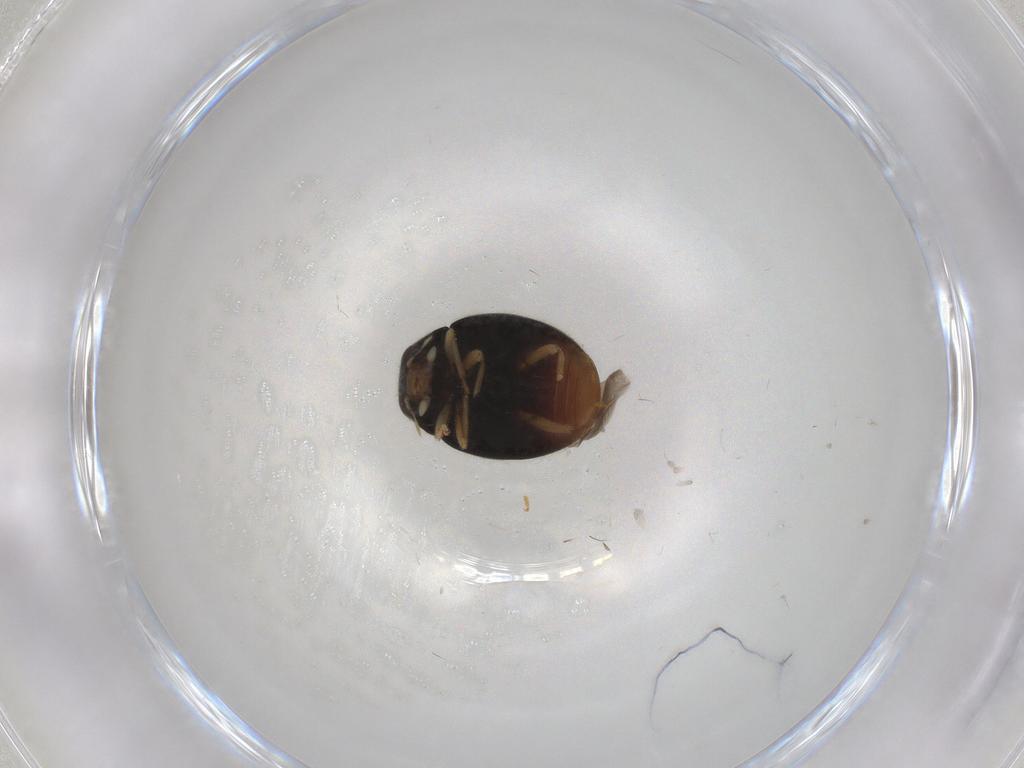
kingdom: Animalia
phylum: Arthropoda
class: Insecta
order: Coleoptera
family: Coccinellidae
